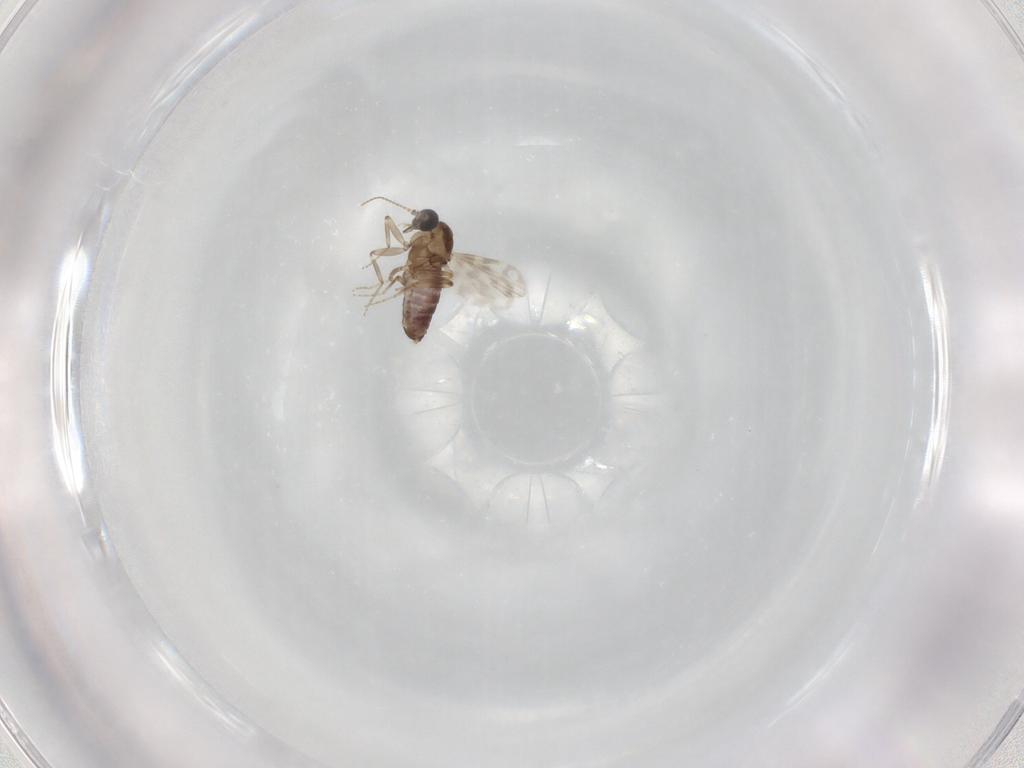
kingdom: Animalia
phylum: Arthropoda
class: Insecta
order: Diptera
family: Ceratopogonidae
